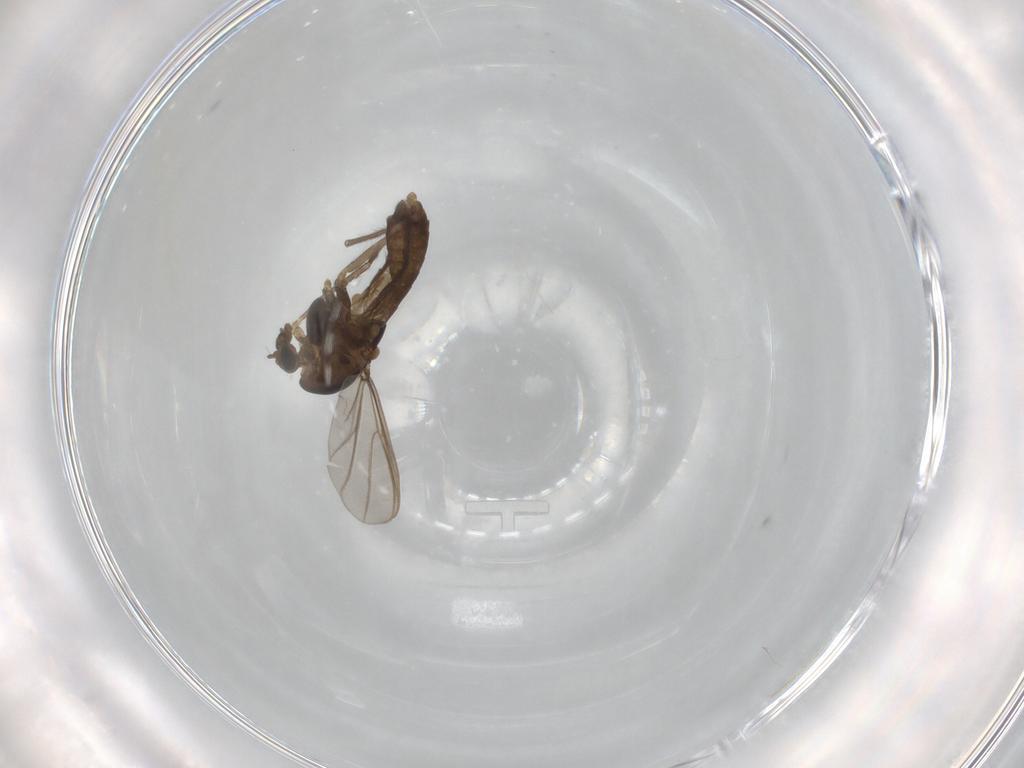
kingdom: Animalia
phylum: Arthropoda
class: Insecta
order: Diptera
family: Chironomidae
